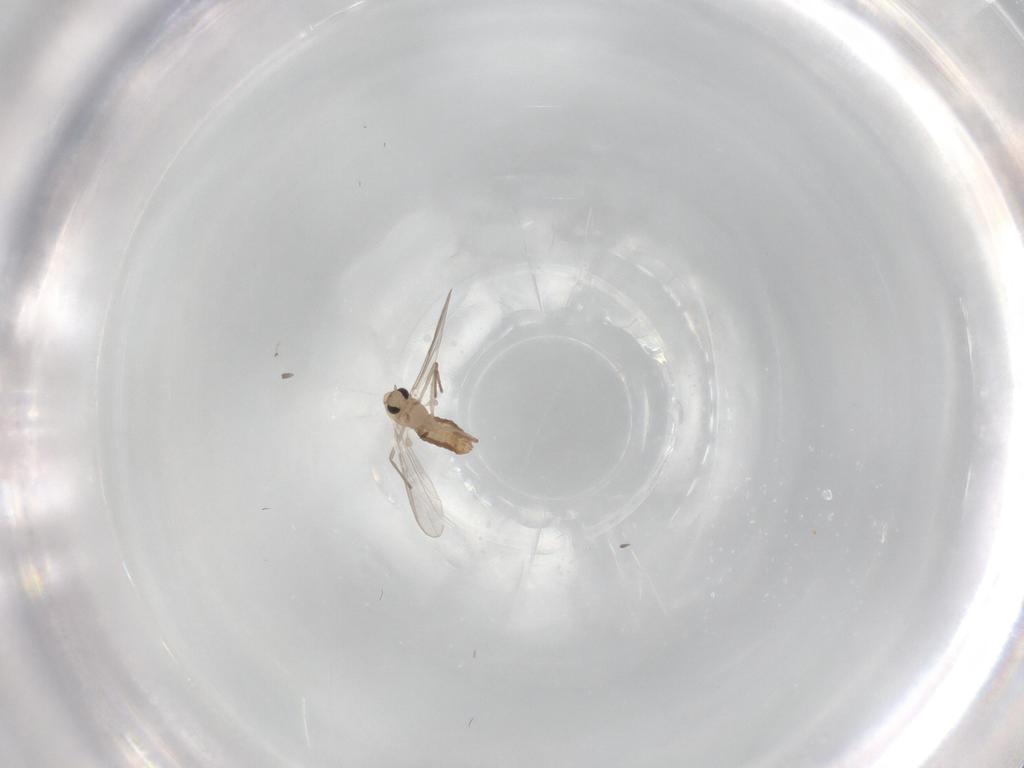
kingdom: Animalia
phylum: Arthropoda
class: Insecta
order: Diptera
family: Chironomidae
